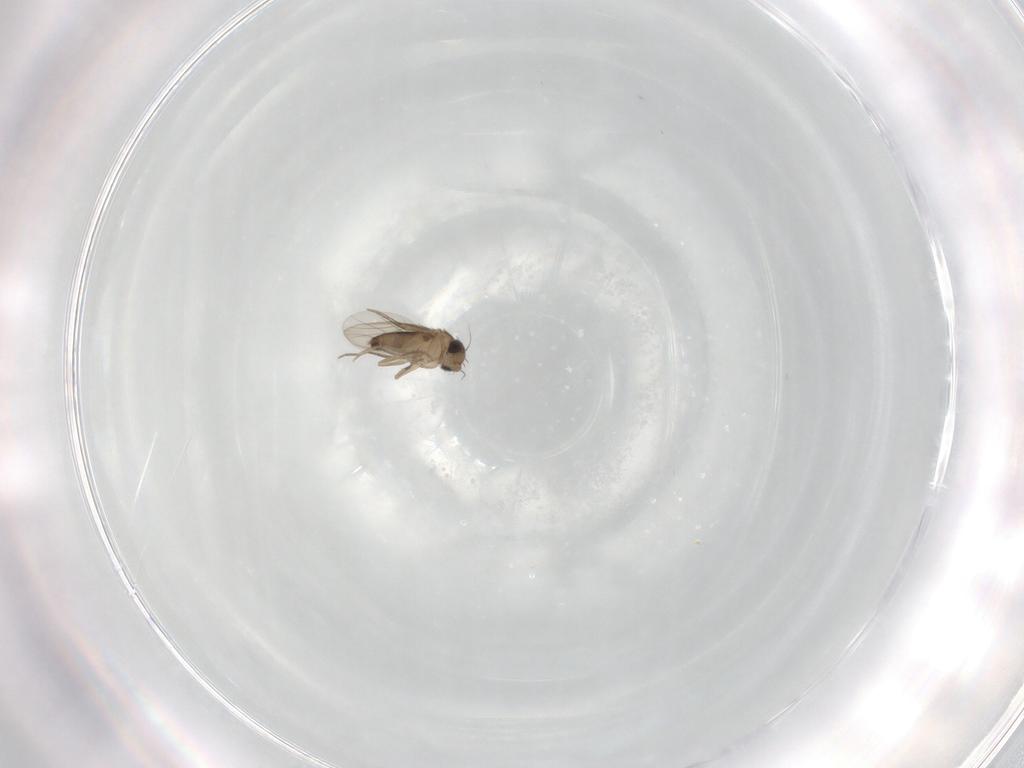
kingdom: Animalia
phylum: Arthropoda
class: Insecta
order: Diptera
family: Phoridae
